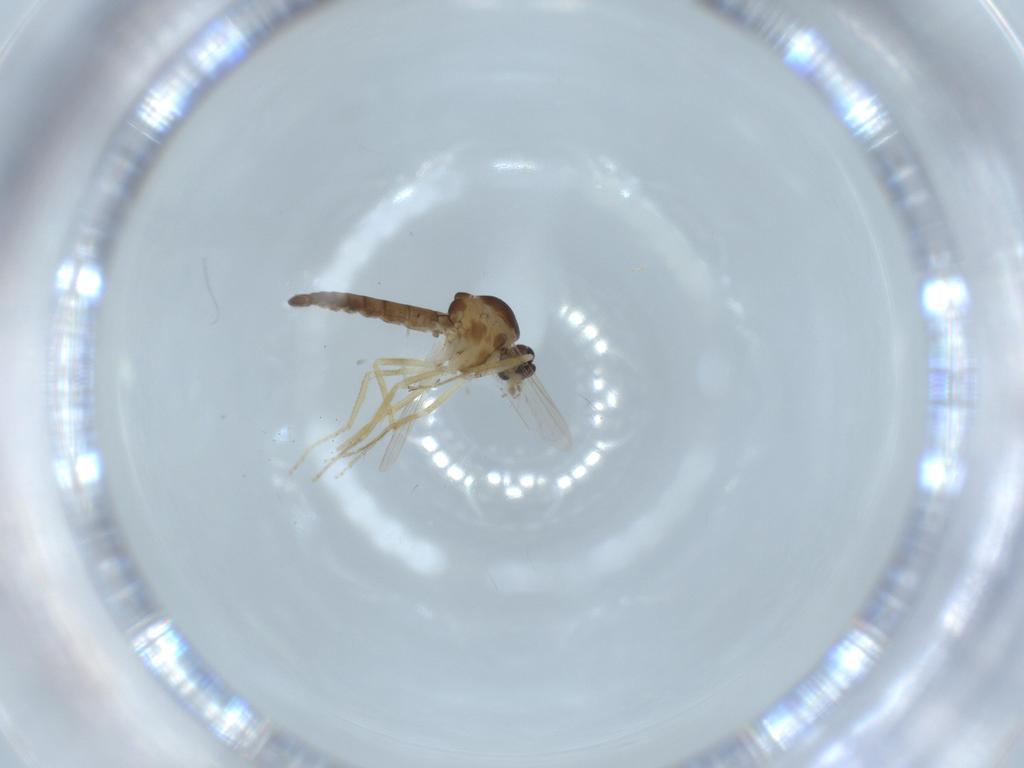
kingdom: Animalia
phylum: Arthropoda
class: Insecta
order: Diptera
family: Ceratopogonidae
